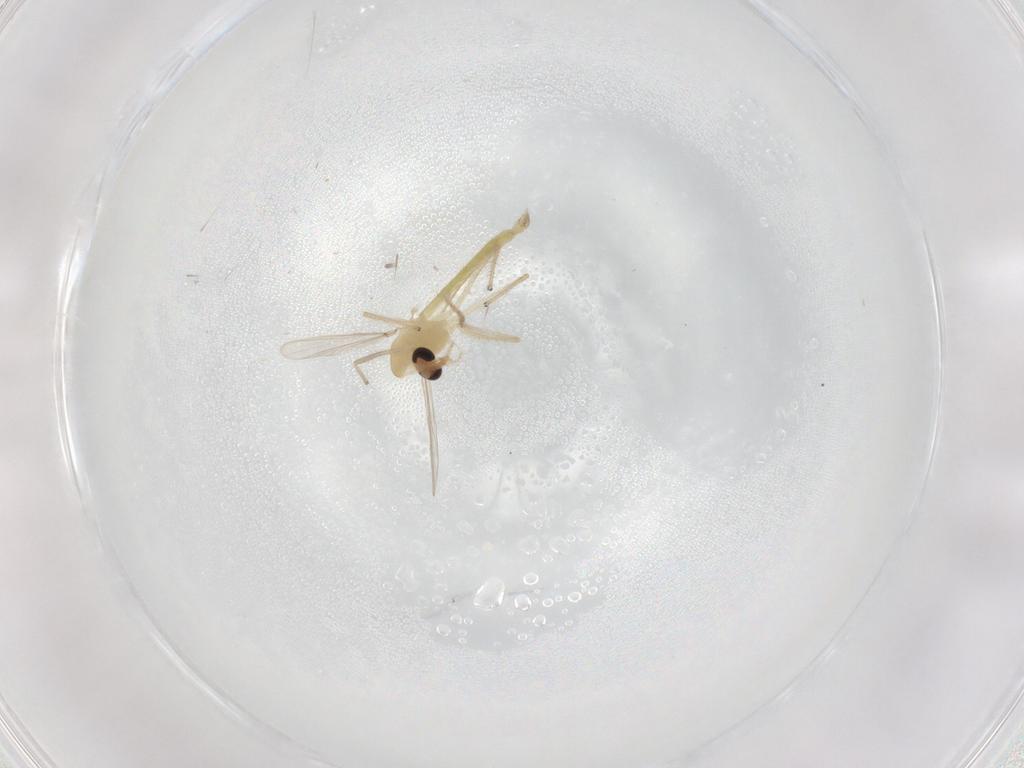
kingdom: Animalia
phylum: Arthropoda
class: Insecta
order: Diptera
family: Chironomidae
